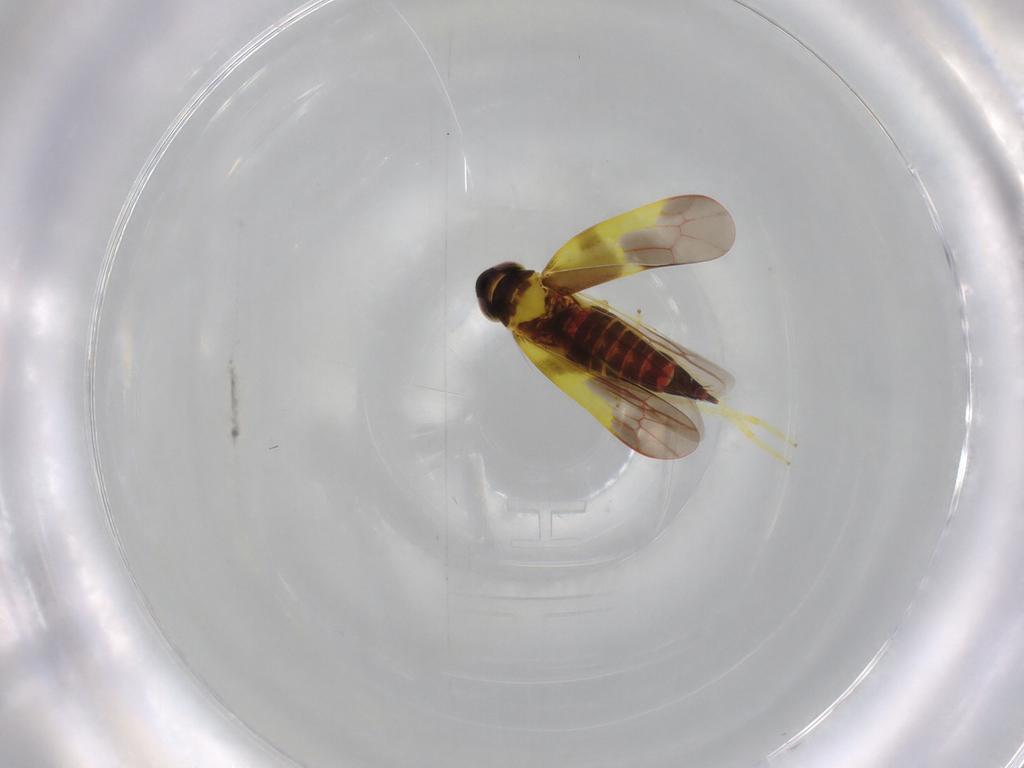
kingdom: Animalia
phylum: Arthropoda
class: Insecta
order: Hemiptera
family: Cicadellidae
